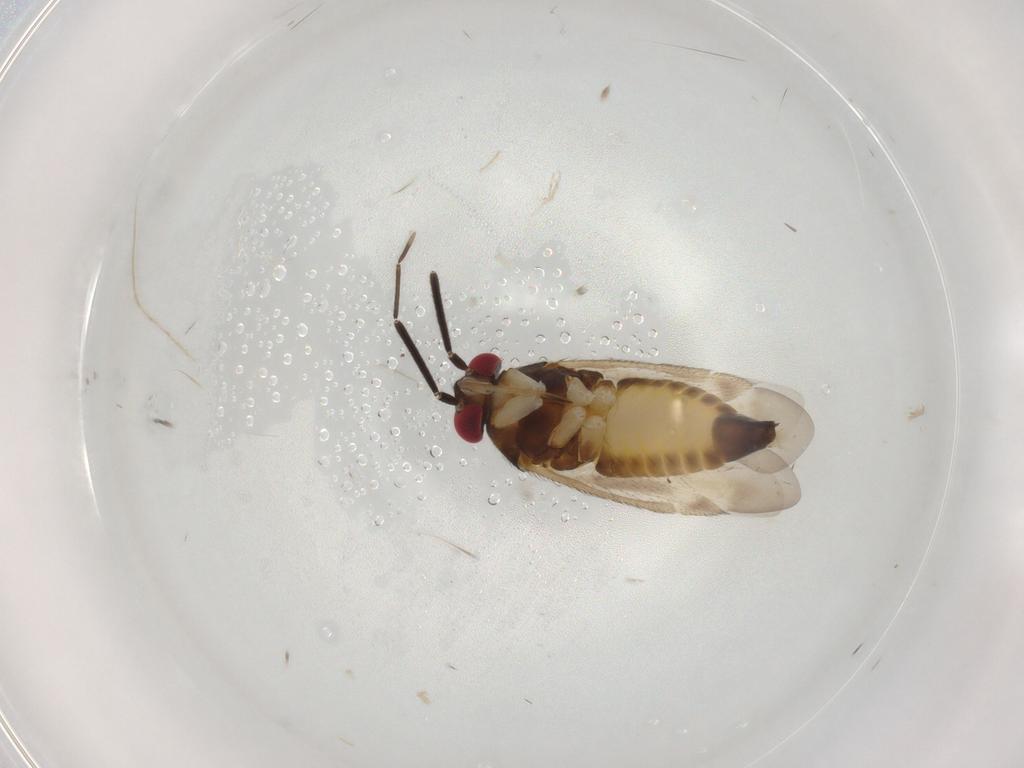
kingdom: Animalia
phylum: Arthropoda
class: Insecta
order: Hemiptera
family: Miridae
